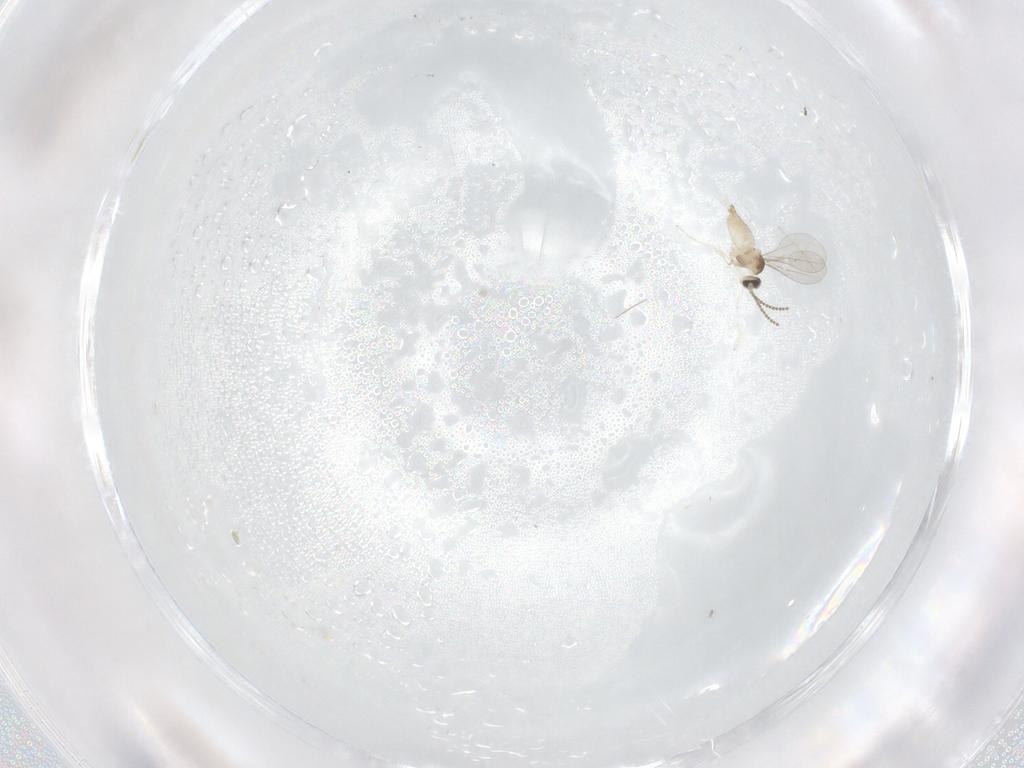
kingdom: Animalia
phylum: Arthropoda
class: Insecta
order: Diptera
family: Cecidomyiidae
